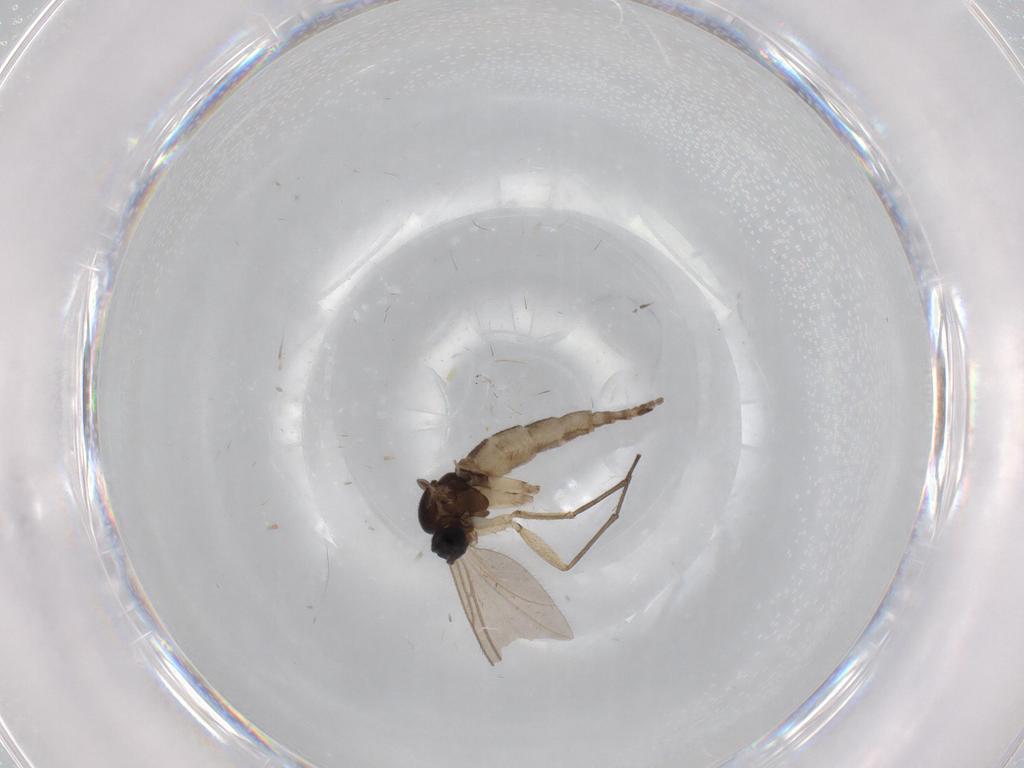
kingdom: Animalia
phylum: Arthropoda
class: Insecta
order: Diptera
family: Sciaridae
